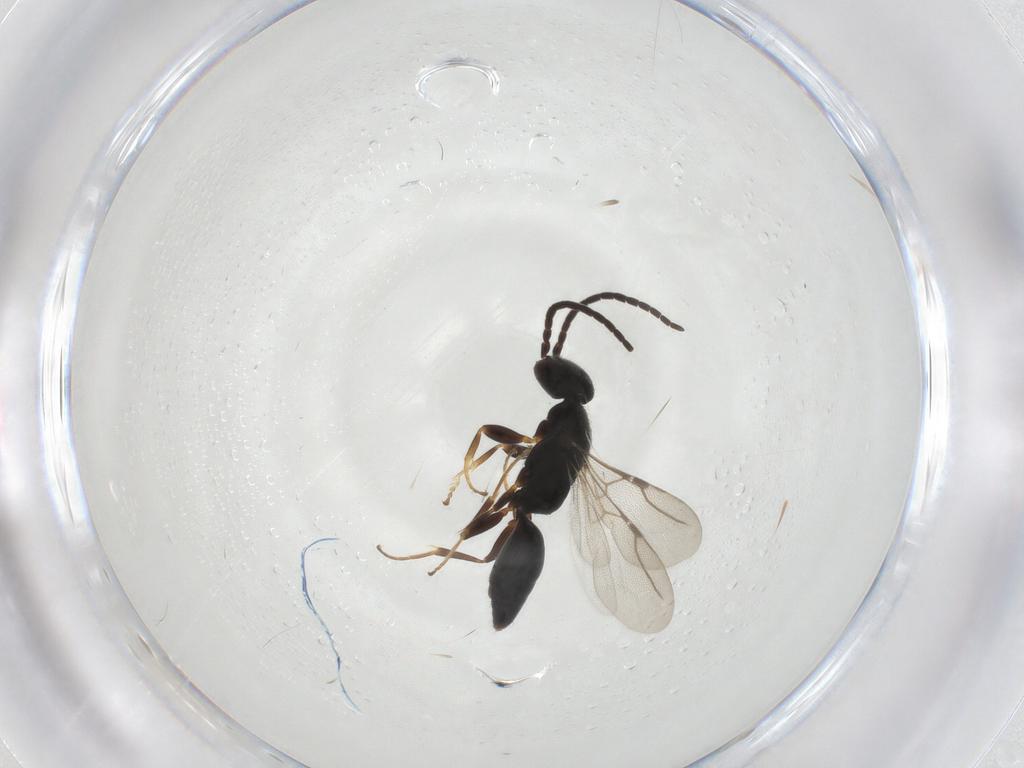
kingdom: Animalia
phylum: Arthropoda
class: Insecta
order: Hymenoptera
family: Bethylidae
